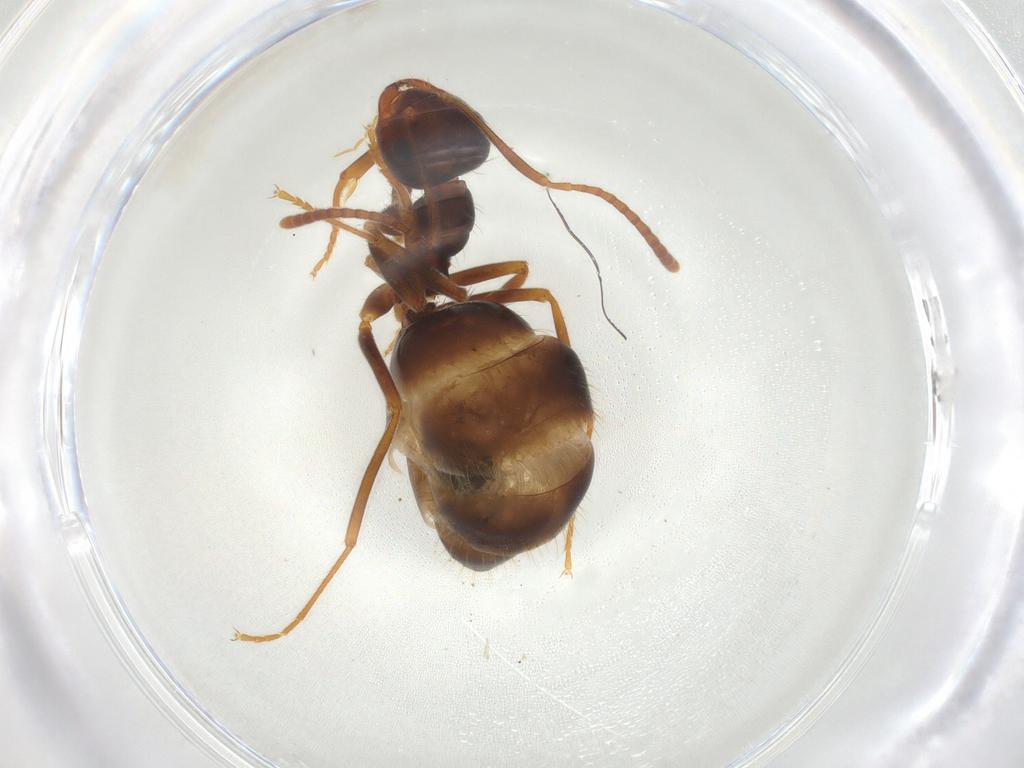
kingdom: Animalia
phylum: Arthropoda
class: Insecta
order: Hymenoptera
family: Formicidae
